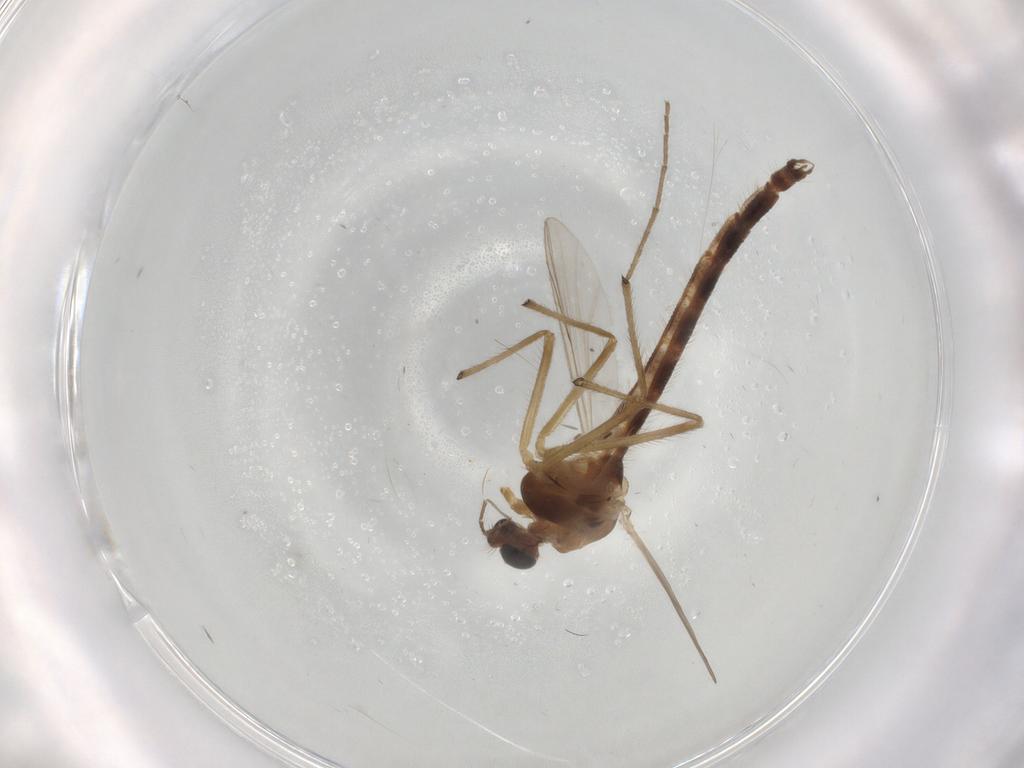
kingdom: Animalia
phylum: Arthropoda
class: Insecta
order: Diptera
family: Chironomidae
